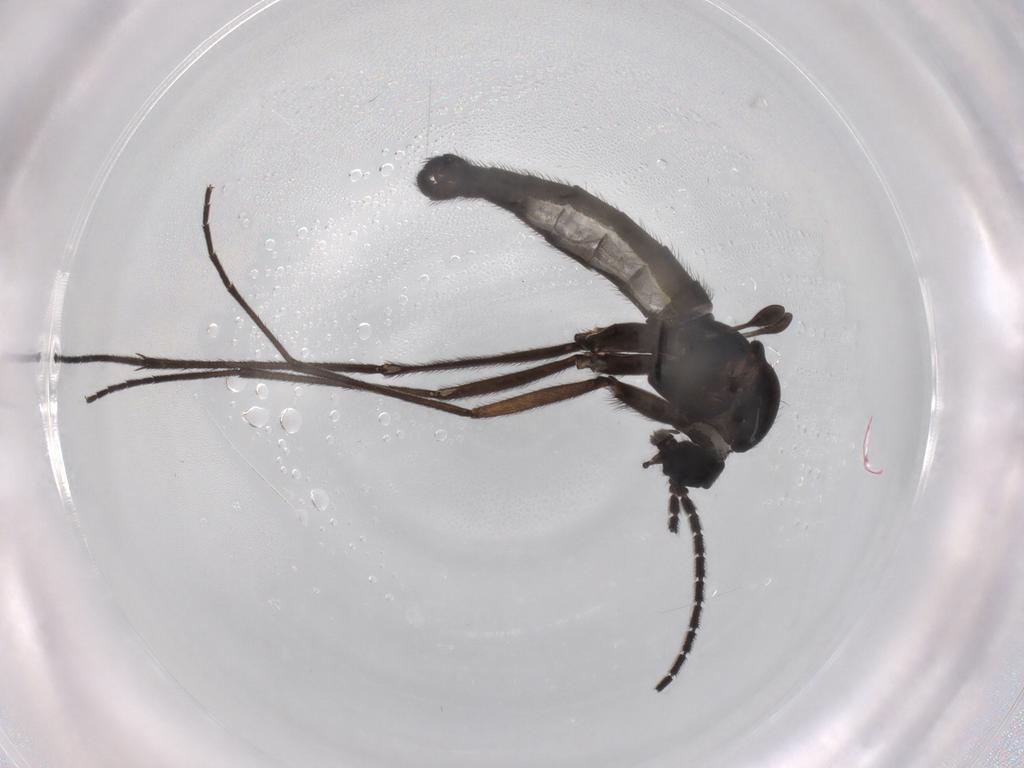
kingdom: Animalia
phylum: Arthropoda
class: Insecta
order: Diptera
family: Sciaridae
